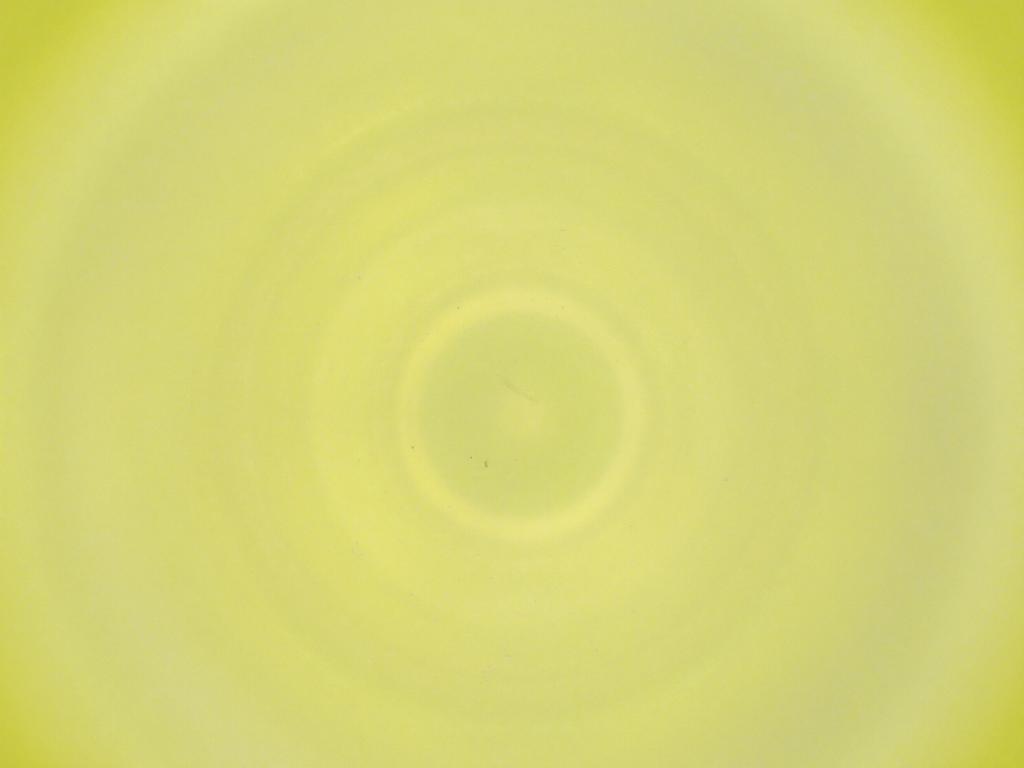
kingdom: Animalia
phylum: Arthropoda
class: Insecta
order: Diptera
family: Cecidomyiidae
